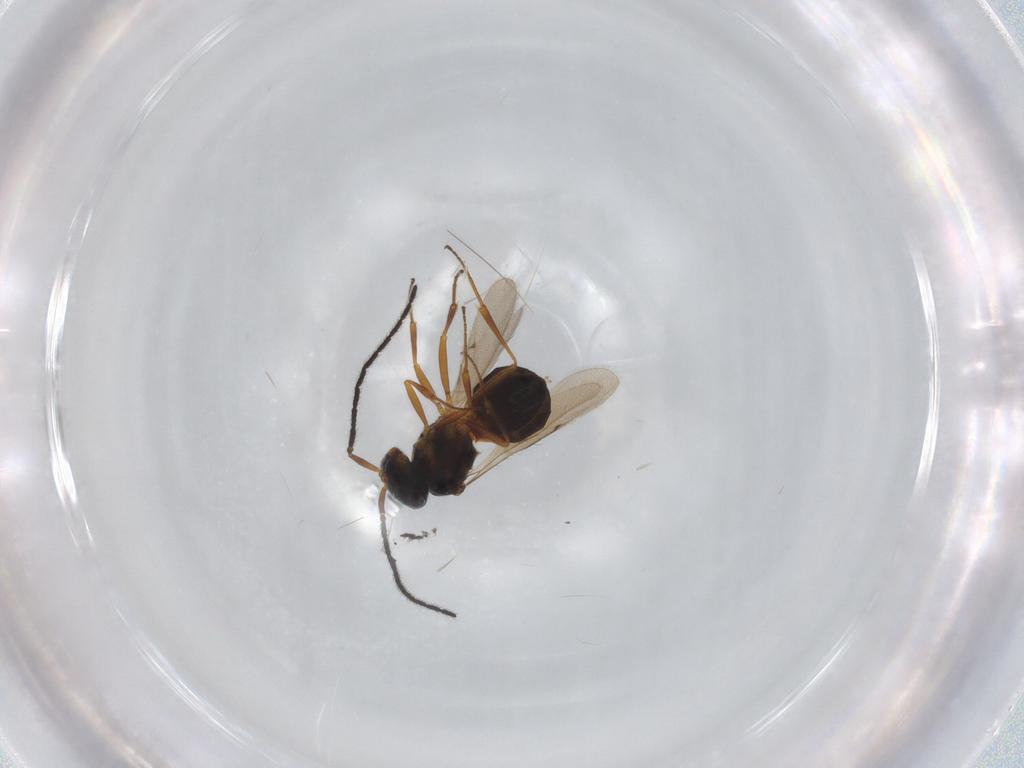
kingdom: Animalia
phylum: Arthropoda
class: Insecta
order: Hymenoptera
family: Scelionidae
